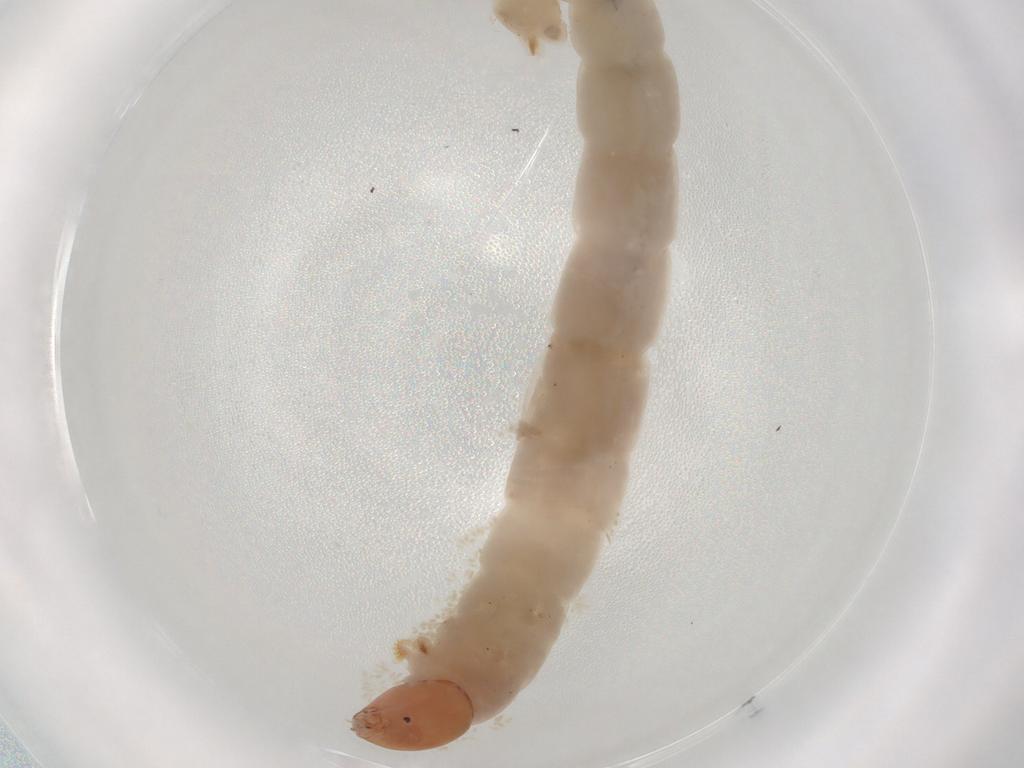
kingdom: Animalia
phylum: Arthropoda
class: Insecta
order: Diptera
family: Chironomidae
